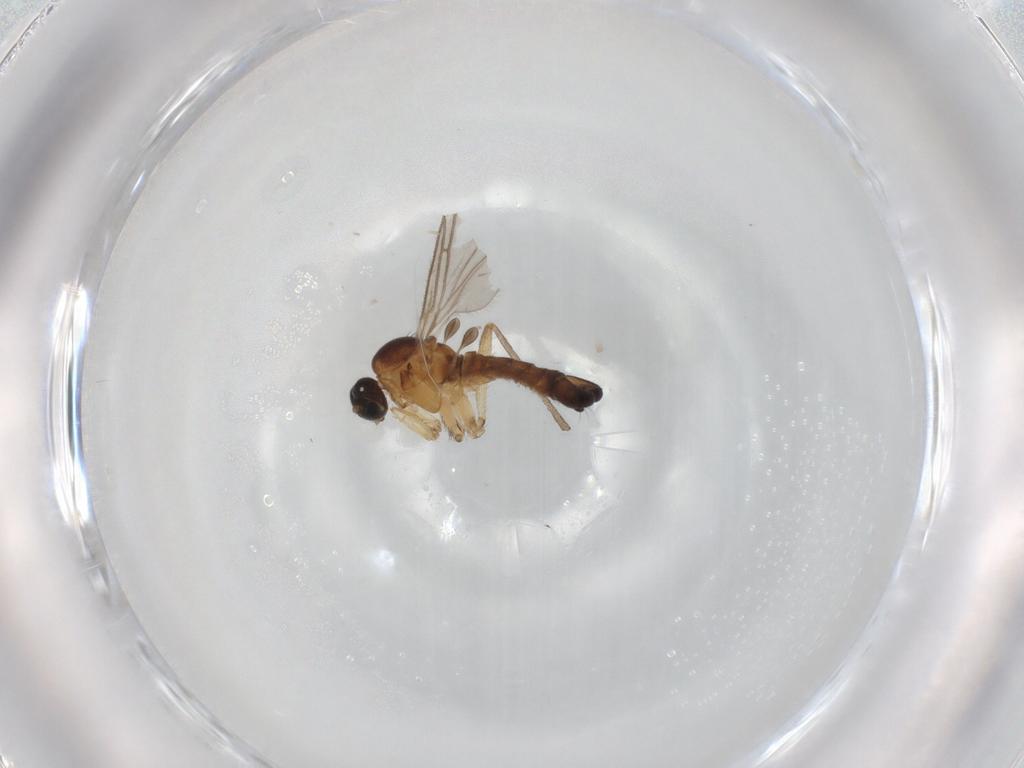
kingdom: Animalia
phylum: Arthropoda
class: Insecta
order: Diptera
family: Sciaridae
